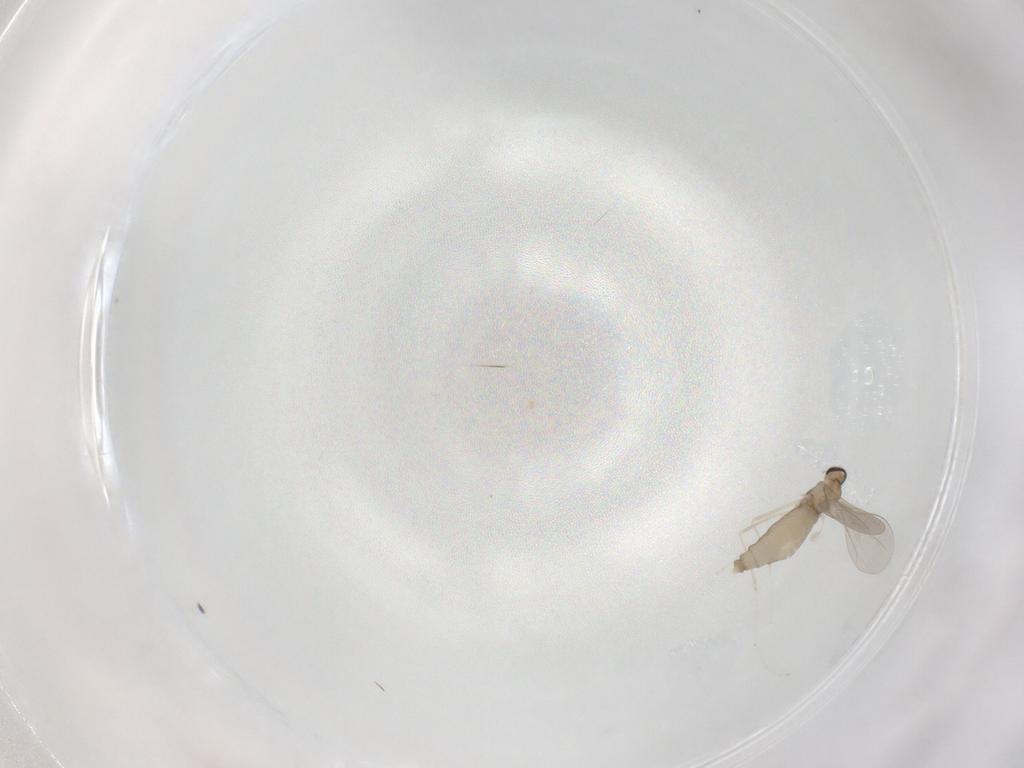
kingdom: Animalia
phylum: Arthropoda
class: Insecta
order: Diptera
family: Cecidomyiidae
